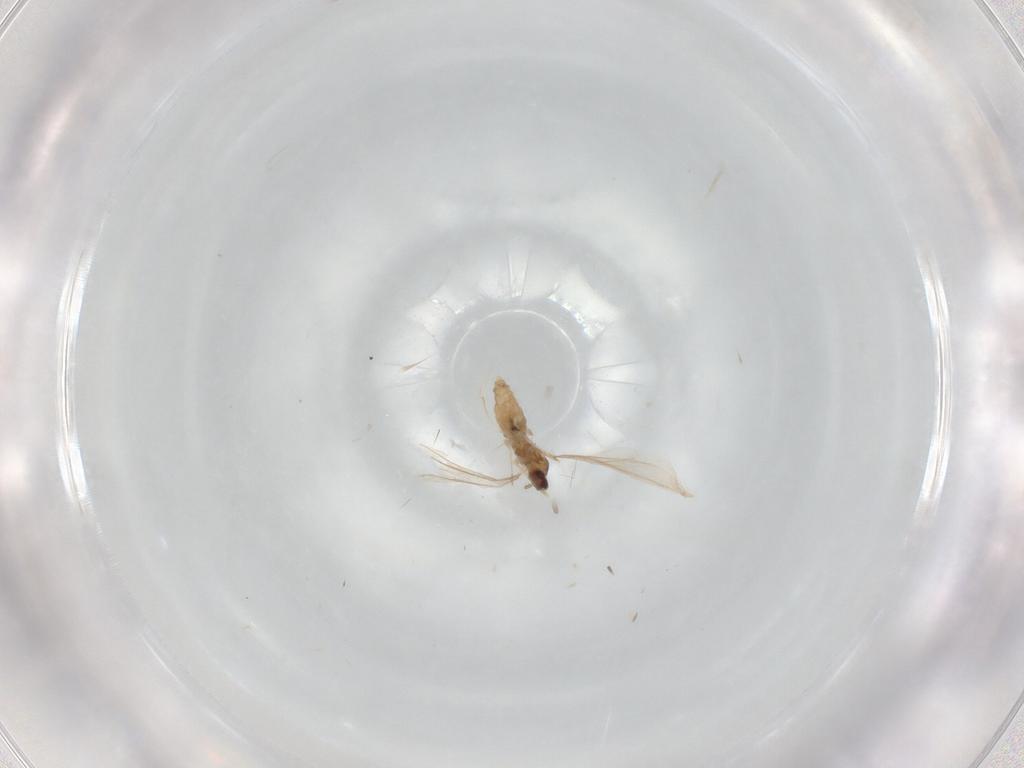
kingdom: Animalia
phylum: Arthropoda
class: Insecta
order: Diptera
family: Cecidomyiidae
